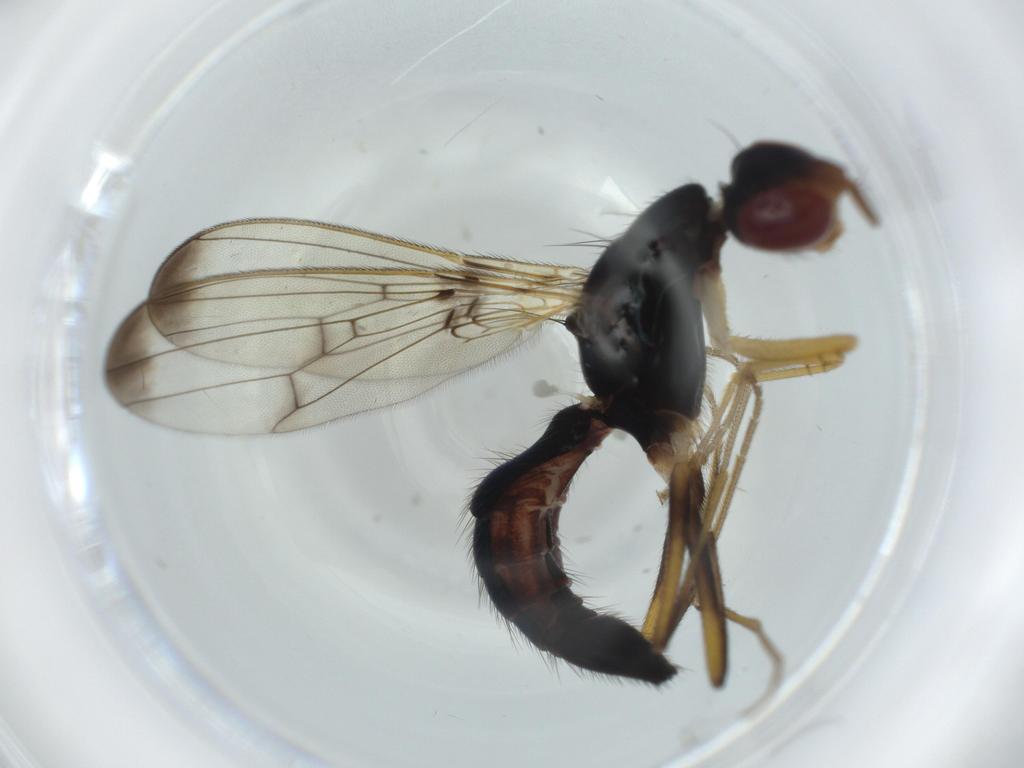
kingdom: Animalia
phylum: Arthropoda
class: Insecta
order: Diptera
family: Chironomidae
